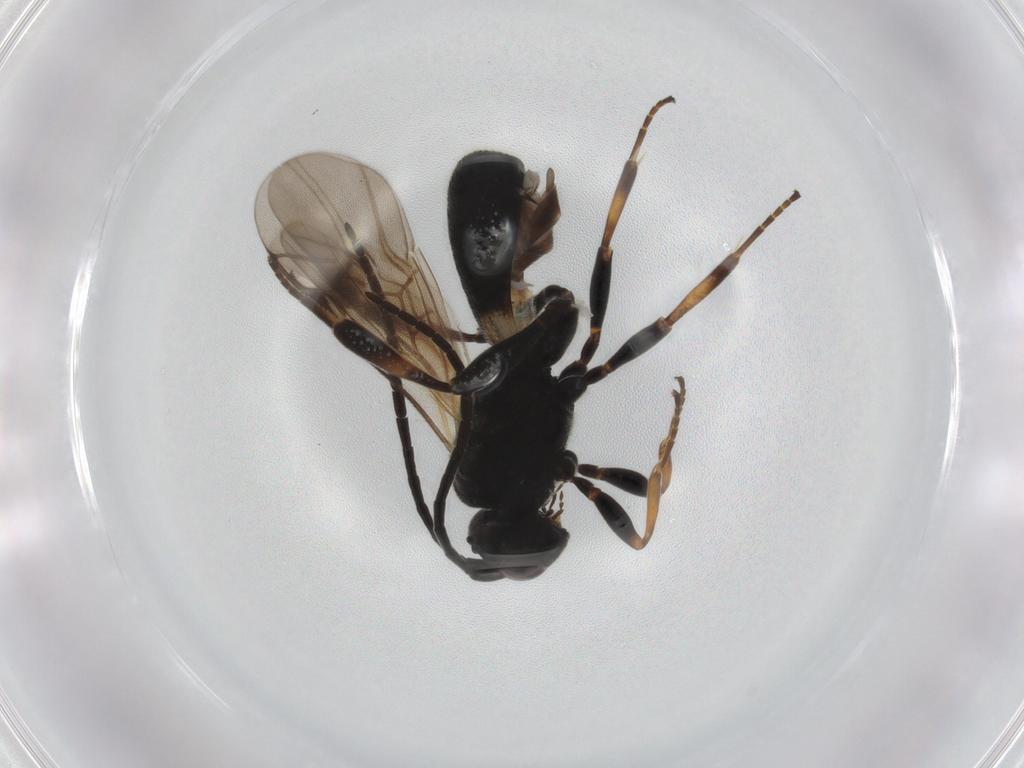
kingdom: Animalia
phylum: Arthropoda
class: Insecta
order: Hymenoptera
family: Braconidae
